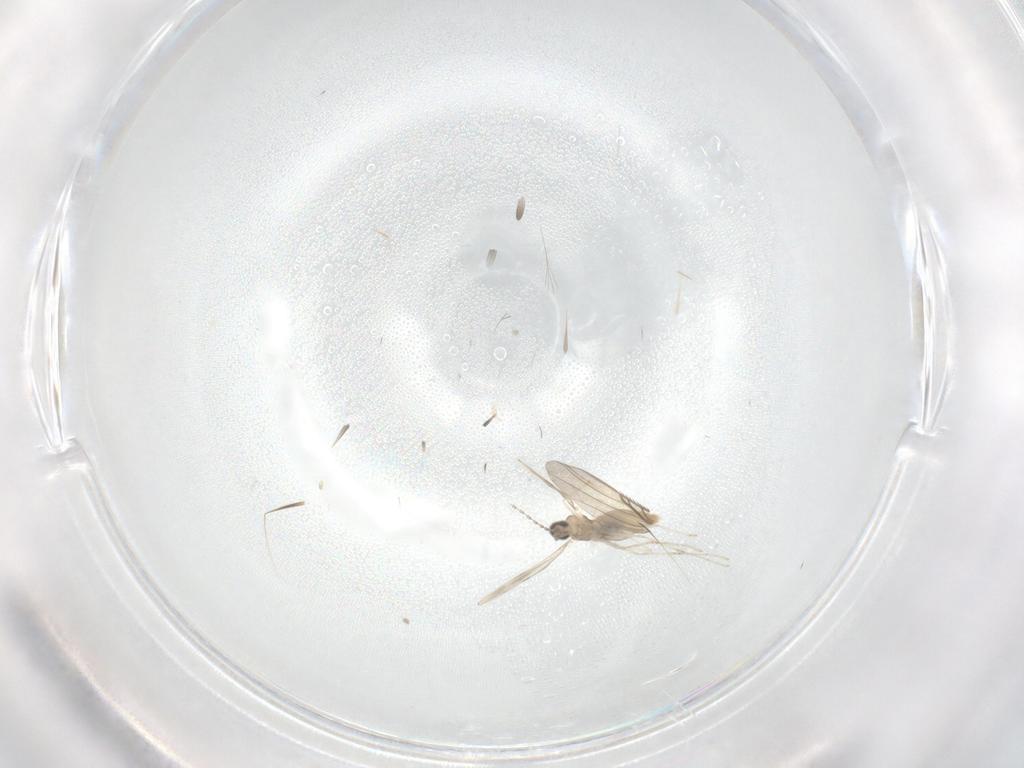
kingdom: Animalia
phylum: Arthropoda
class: Insecta
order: Diptera
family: Cecidomyiidae
